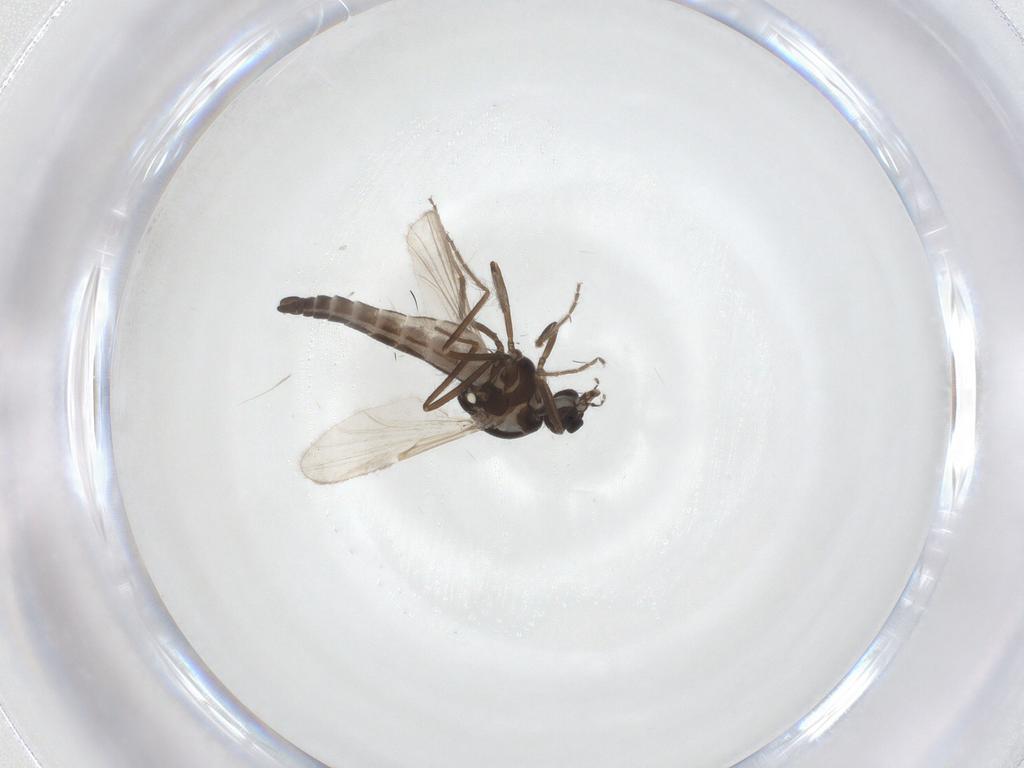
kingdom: Animalia
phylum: Arthropoda
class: Insecta
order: Diptera
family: Ceratopogonidae
